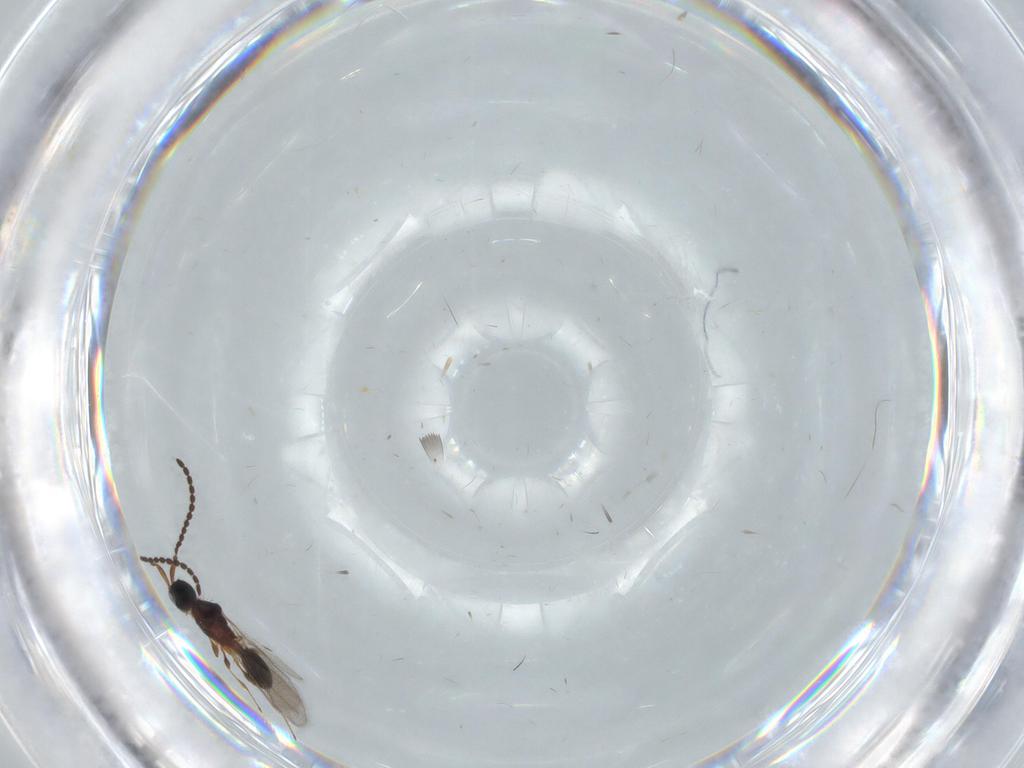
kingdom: Animalia
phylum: Arthropoda
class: Insecta
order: Hymenoptera
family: Diapriidae
